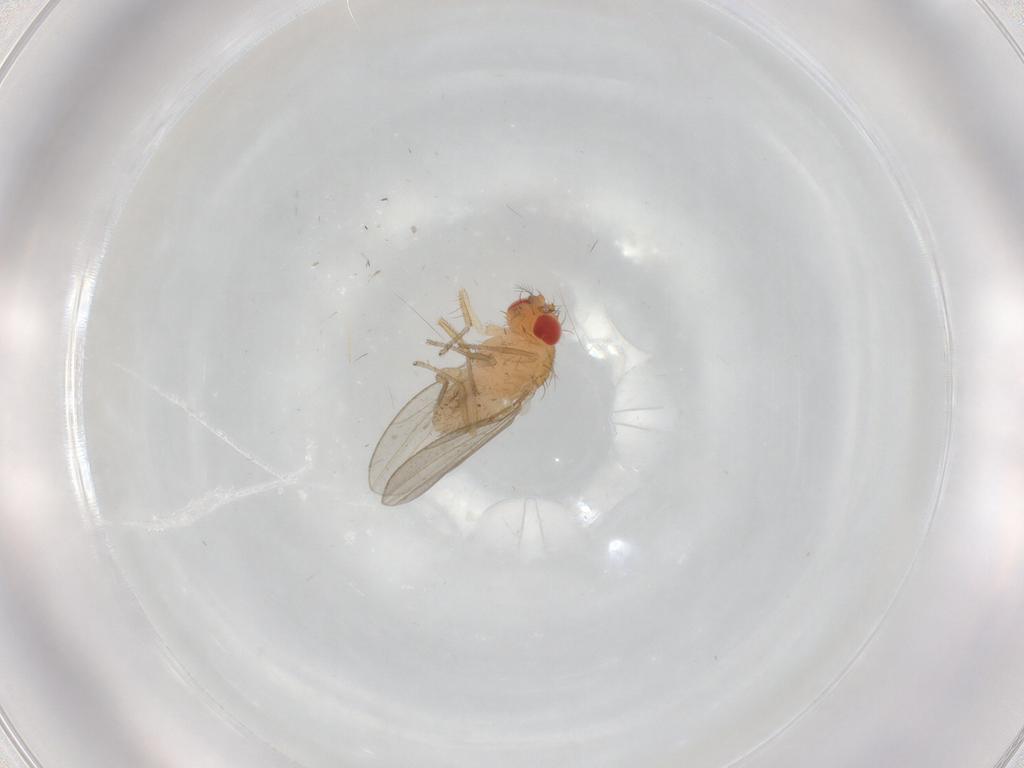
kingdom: Animalia
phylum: Arthropoda
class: Insecta
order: Diptera
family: Drosophilidae
